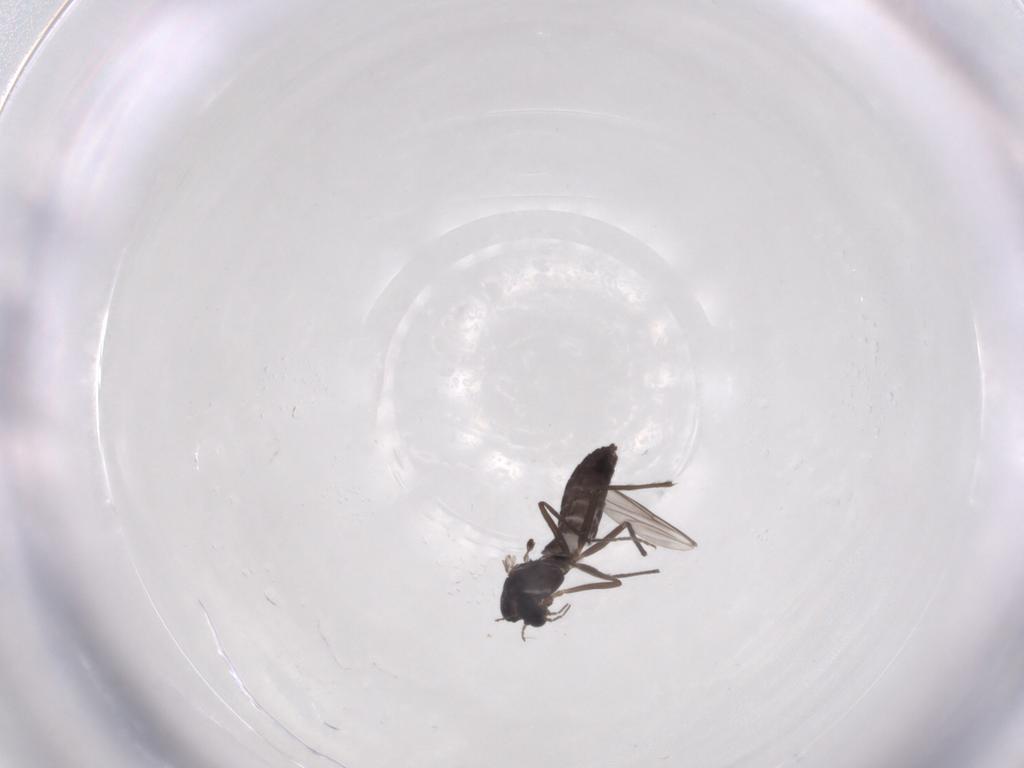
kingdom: Animalia
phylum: Arthropoda
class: Insecta
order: Diptera
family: Chironomidae
